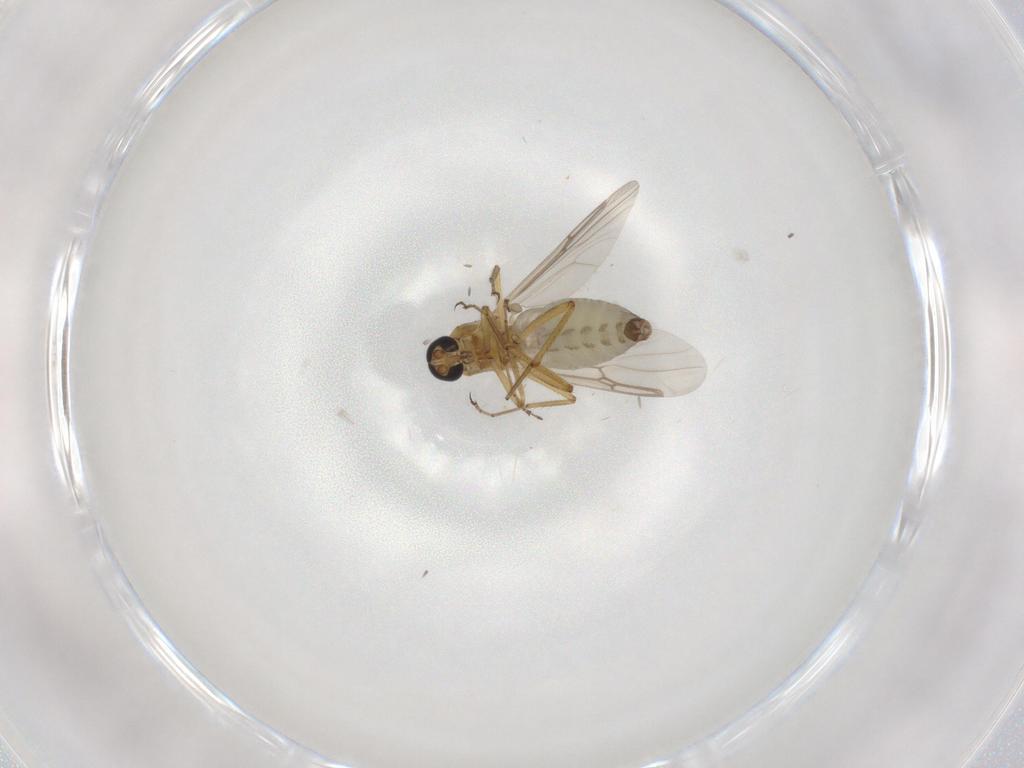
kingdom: Animalia
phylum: Arthropoda
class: Insecta
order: Diptera
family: Ceratopogonidae
